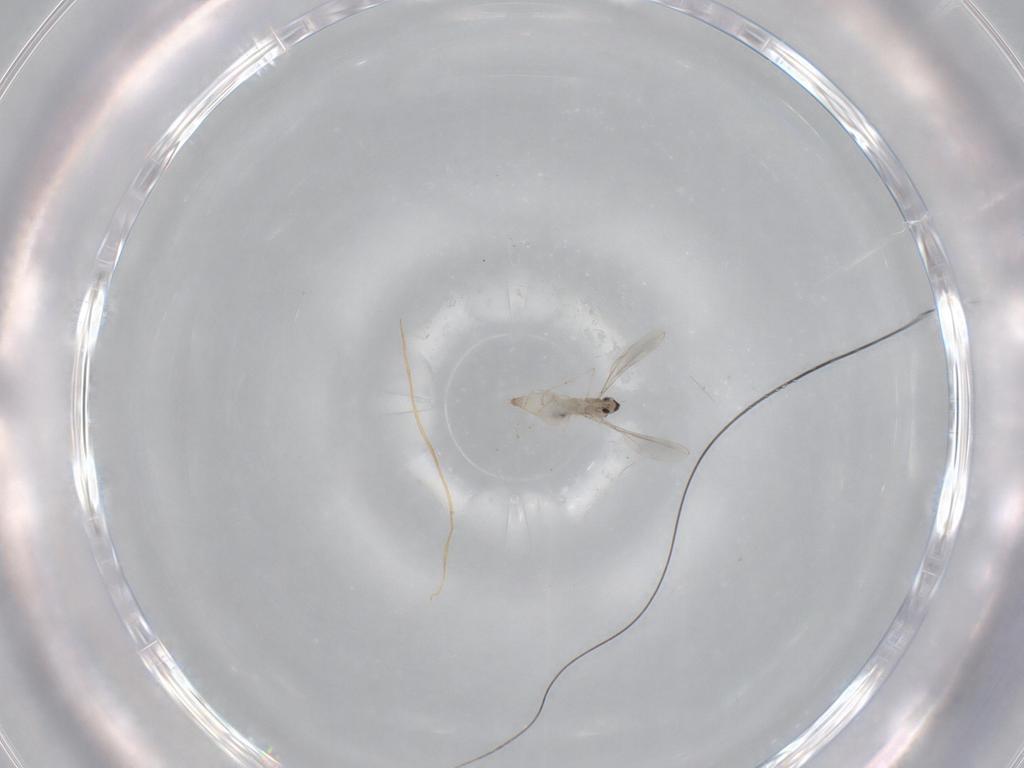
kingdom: Animalia
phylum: Arthropoda
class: Insecta
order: Diptera
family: Cecidomyiidae
